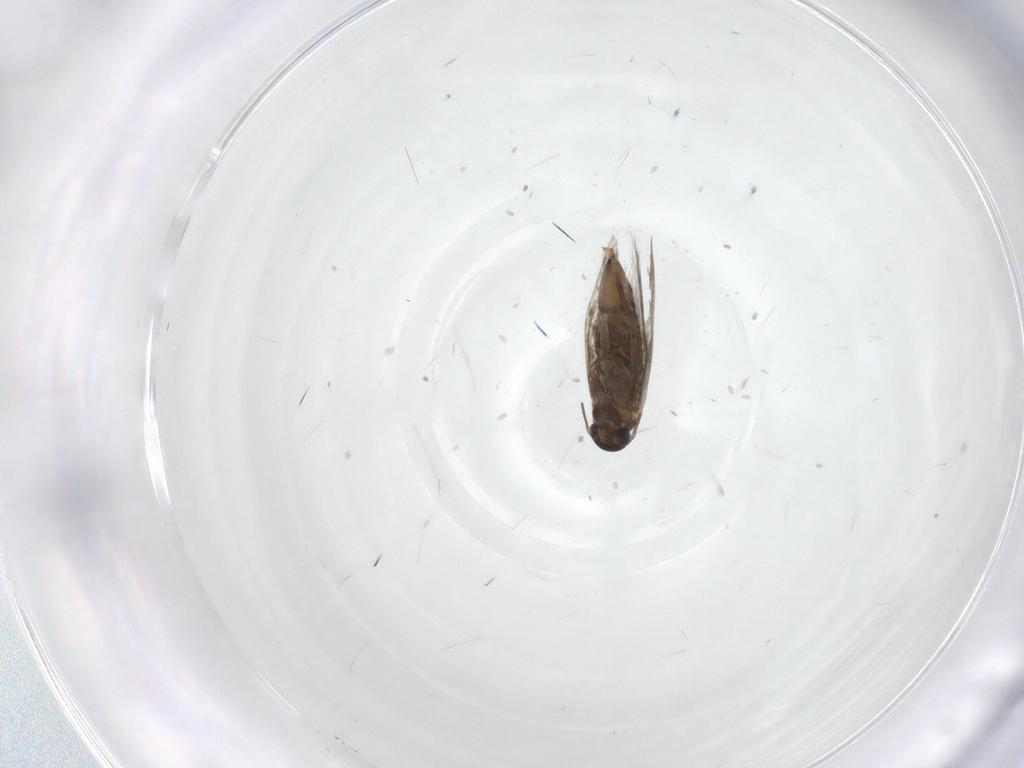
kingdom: Animalia
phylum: Arthropoda
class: Insecta
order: Lepidoptera
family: Heliozelidae
